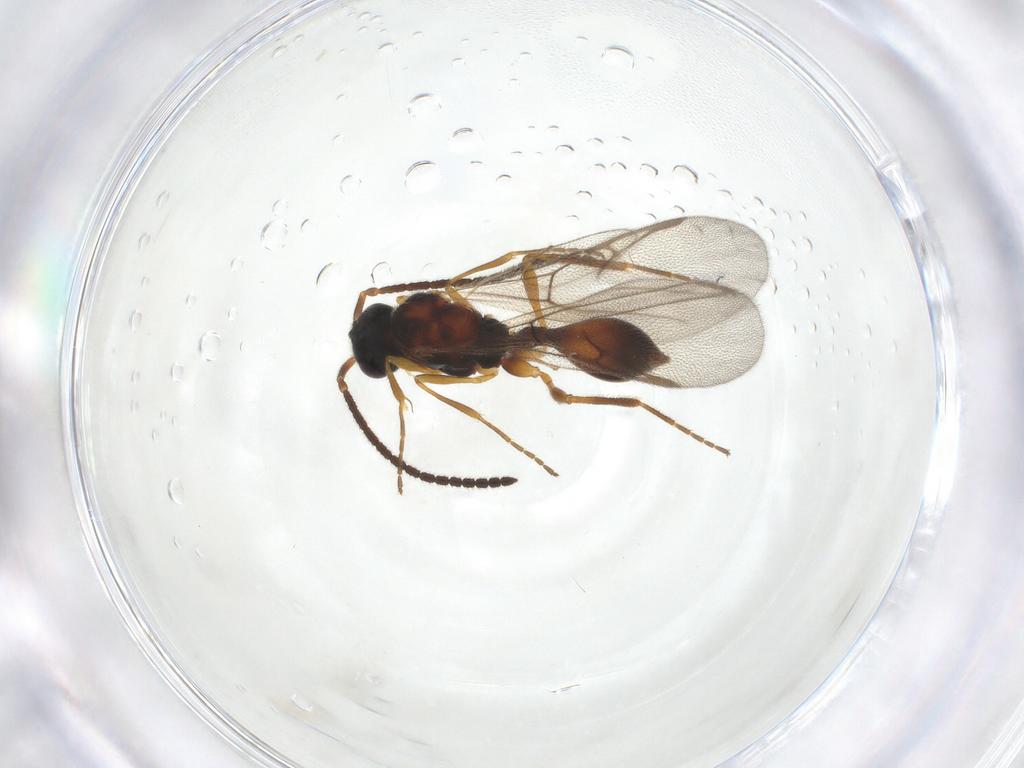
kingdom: Animalia
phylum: Arthropoda
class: Insecta
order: Hymenoptera
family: Diapriidae
